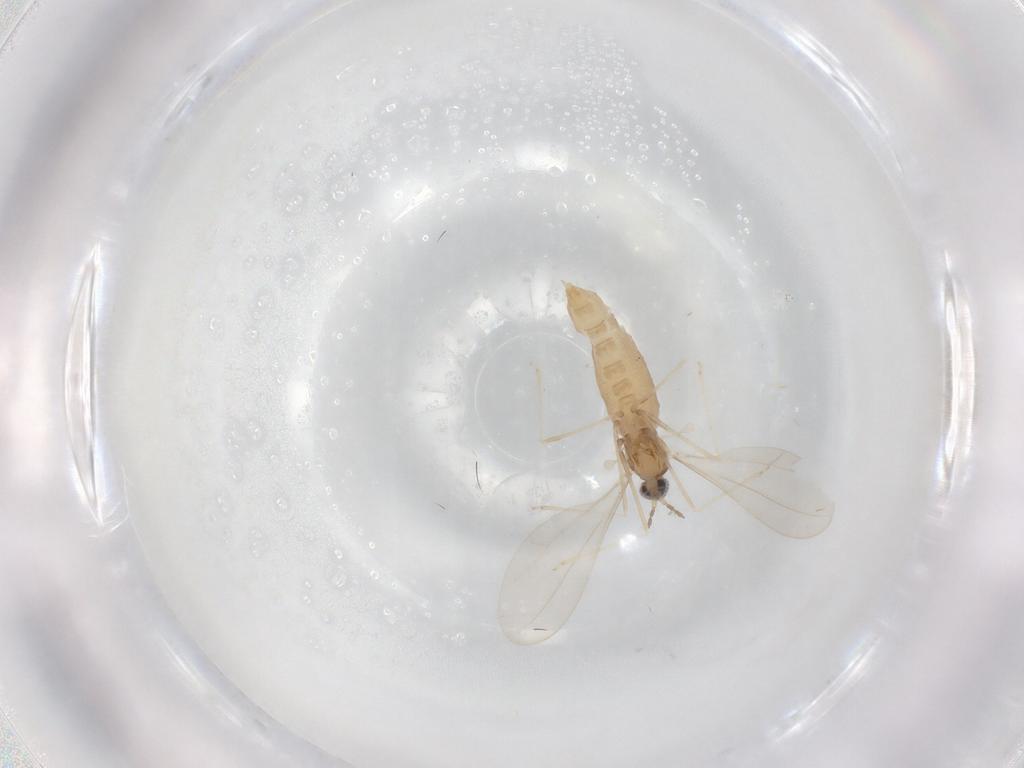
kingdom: Animalia
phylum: Arthropoda
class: Insecta
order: Diptera
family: Cecidomyiidae
